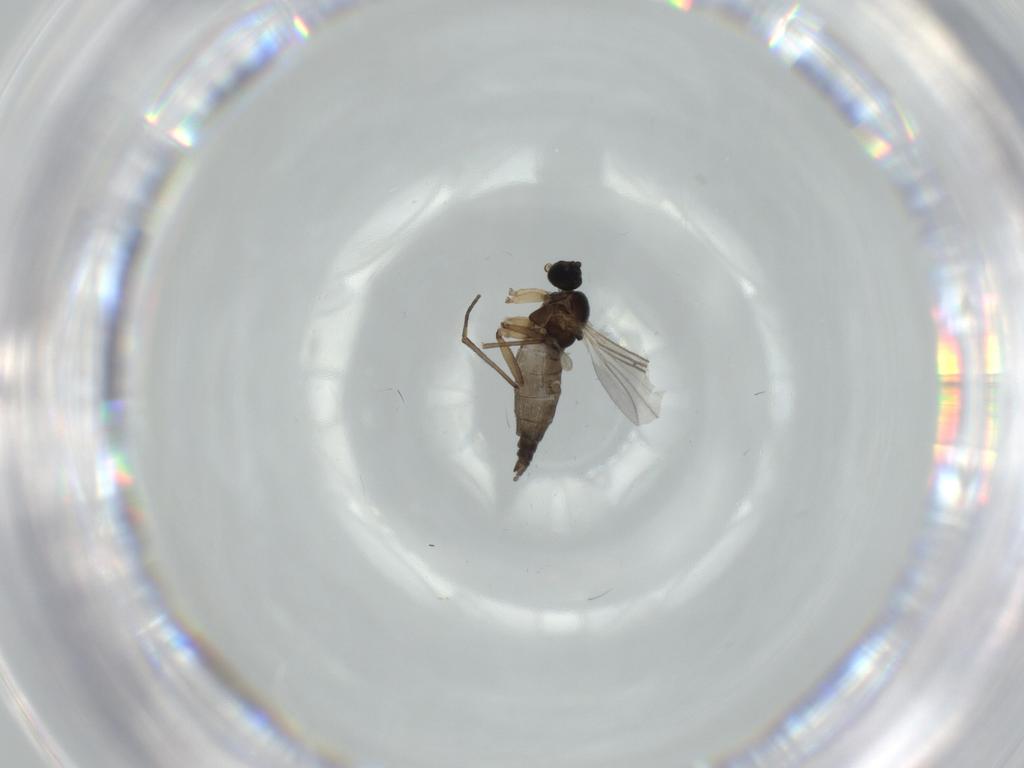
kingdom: Animalia
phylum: Arthropoda
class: Insecta
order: Diptera
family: Sciaridae
